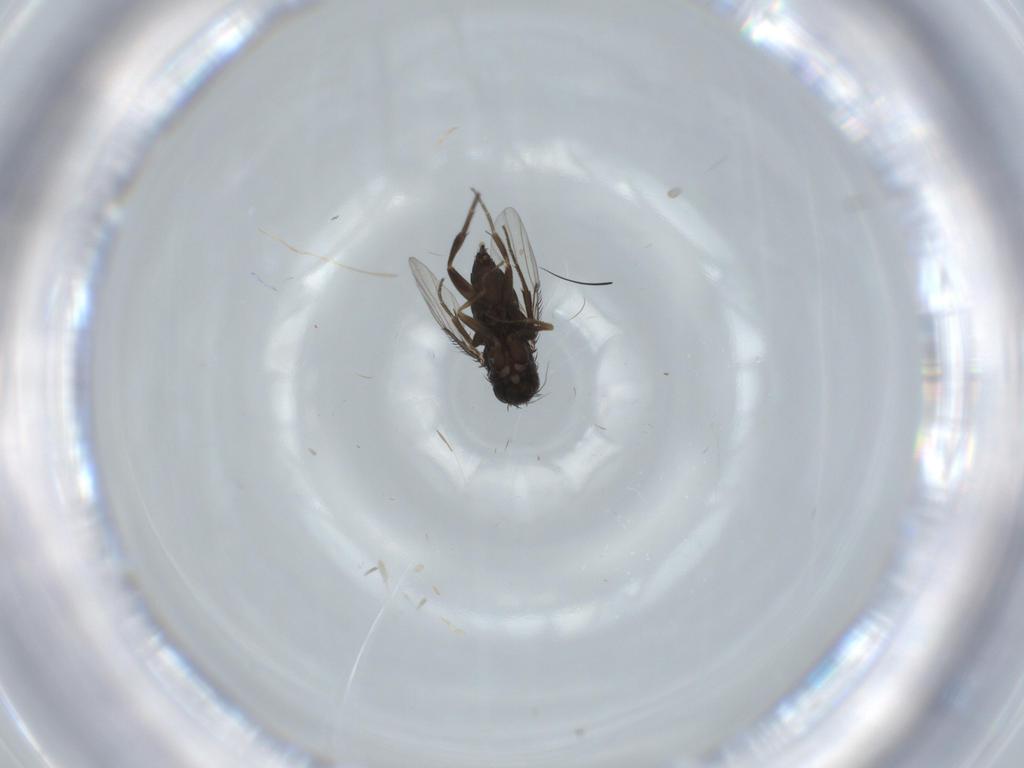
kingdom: Animalia
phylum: Arthropoda
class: Insecta
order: Diptera
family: Phoridae
